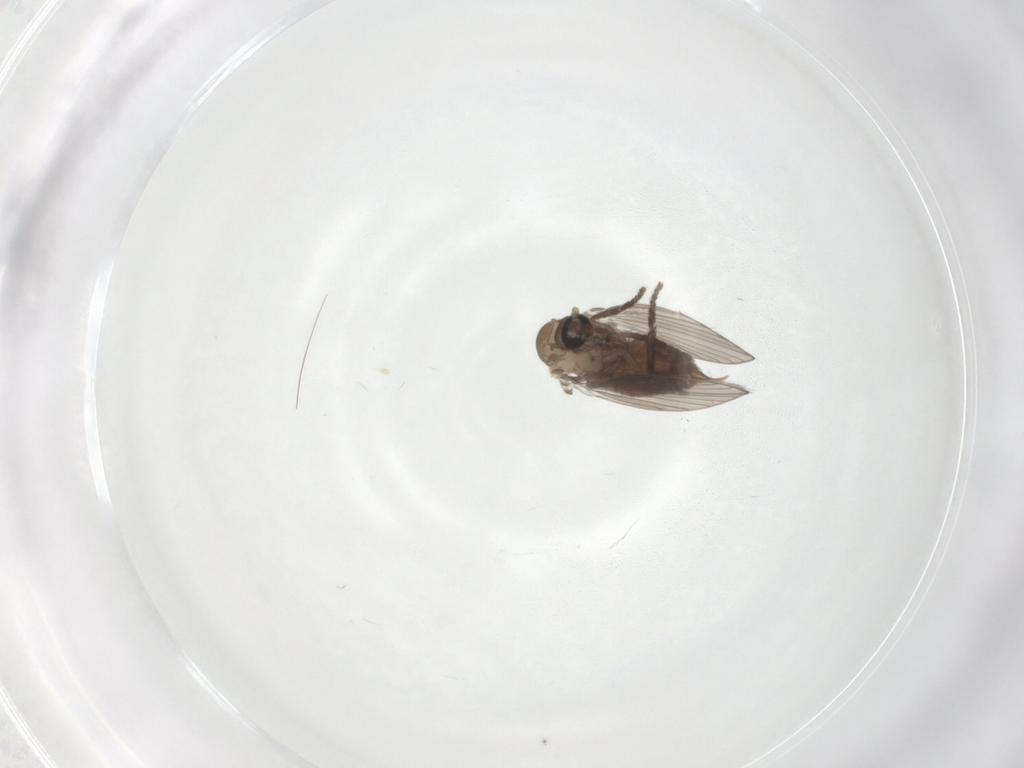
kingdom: Animalia
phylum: Arthropoda
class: Insecta
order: Diptera
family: Psychodidae
